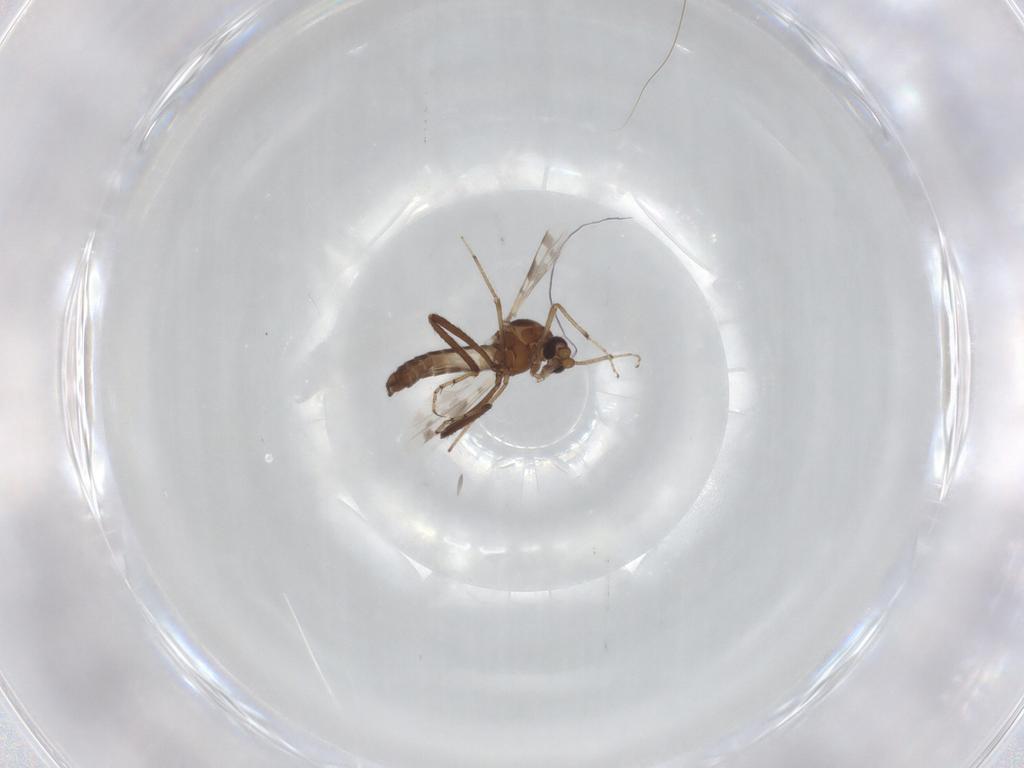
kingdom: Animalia
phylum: Arthropoda
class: Insecta
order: Diptera
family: Ceratopogonidae
